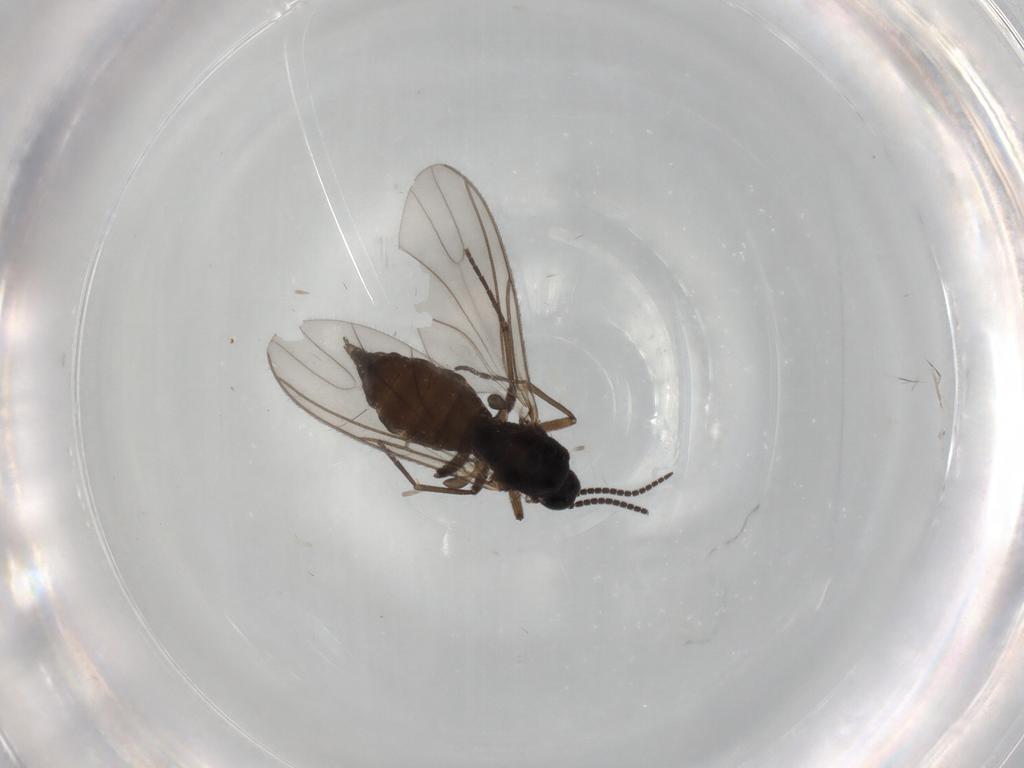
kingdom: Animalia
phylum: Arthropoda
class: Insecta
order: Diptera
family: Sciaridae
